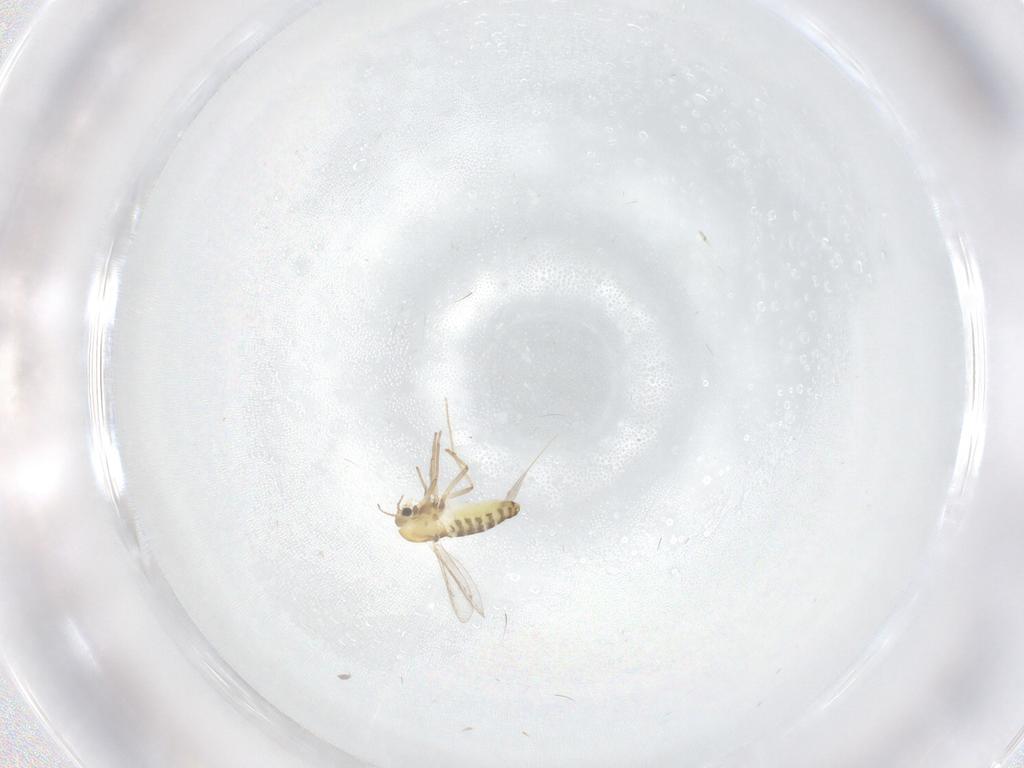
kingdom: Animalia
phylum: Arthropoda
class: Insecta
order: Diptera
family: Chironomidae
